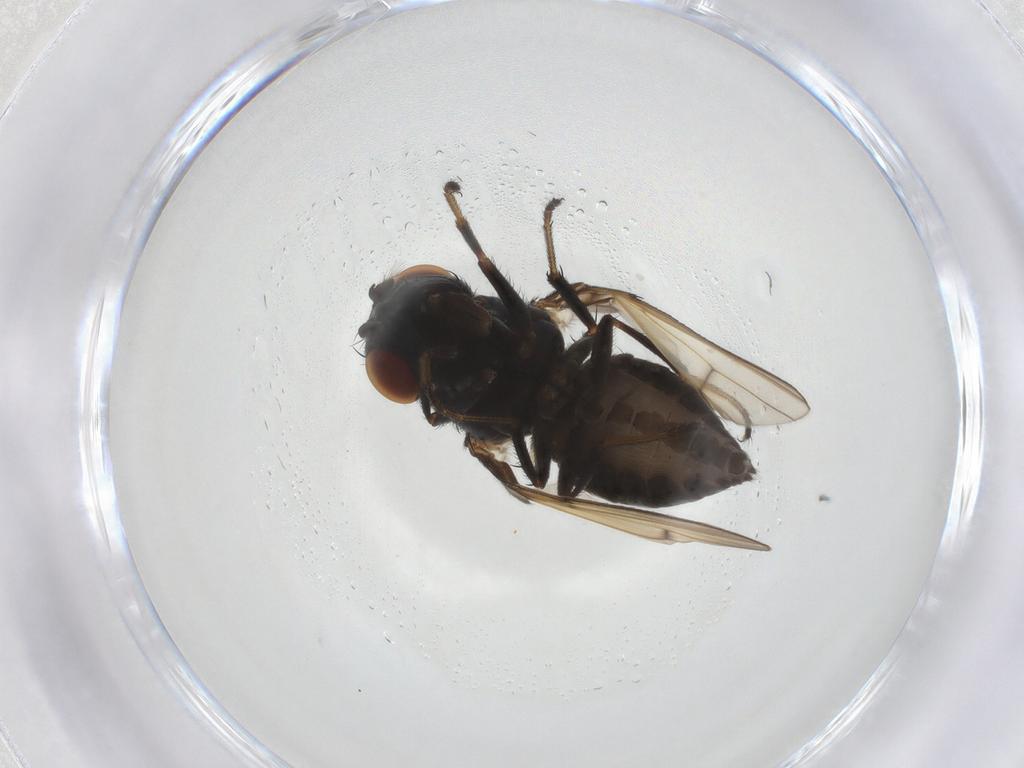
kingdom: Animalia
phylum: Arthropoda
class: Insecta
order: Diptera
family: Ephydridae
